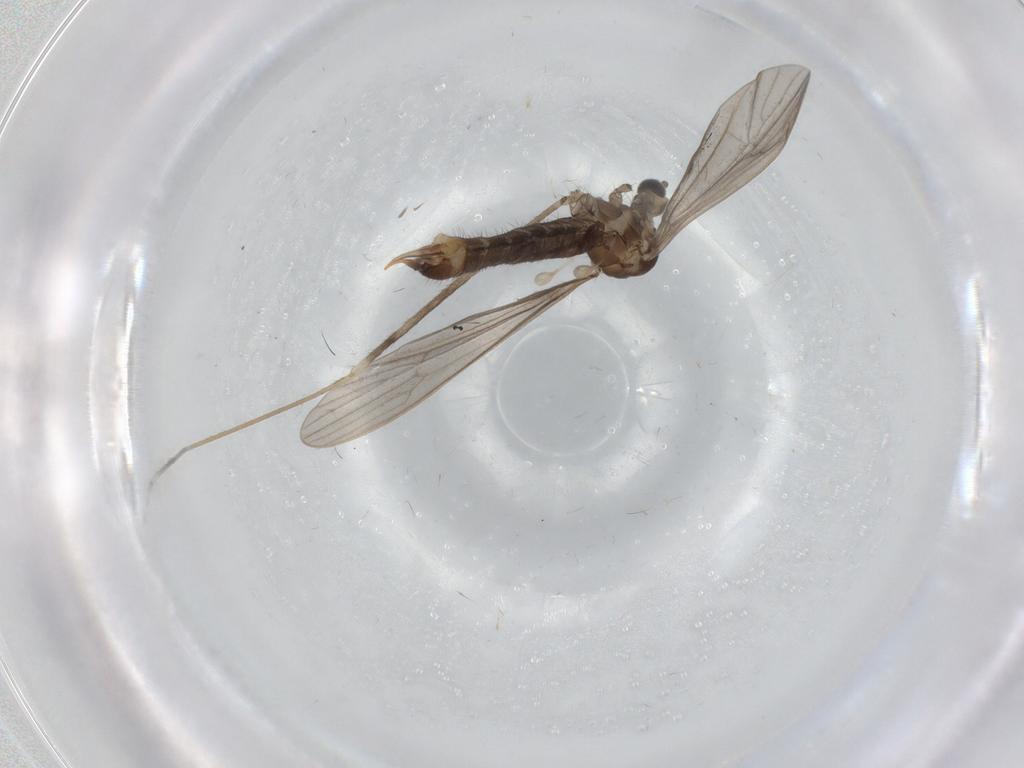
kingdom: Animalia
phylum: Arthropoda
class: Insecta
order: Diptera
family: Limoniidae
